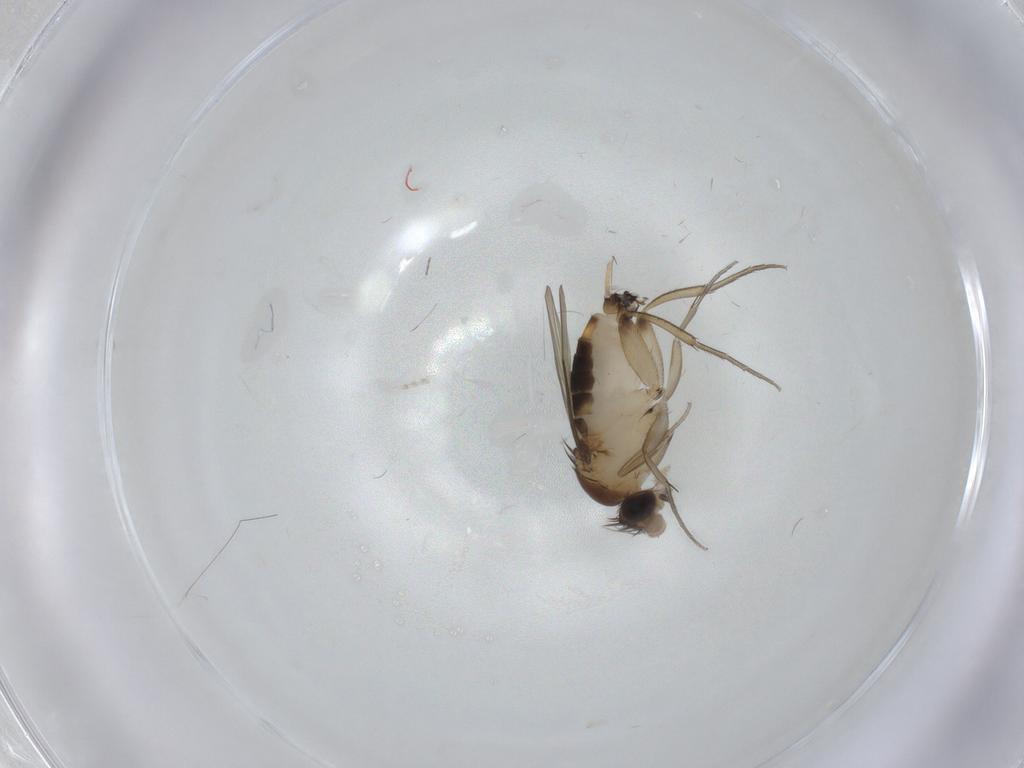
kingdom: Animalia
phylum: Arthropoda
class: Insecta
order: Diptera
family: Phoridae
